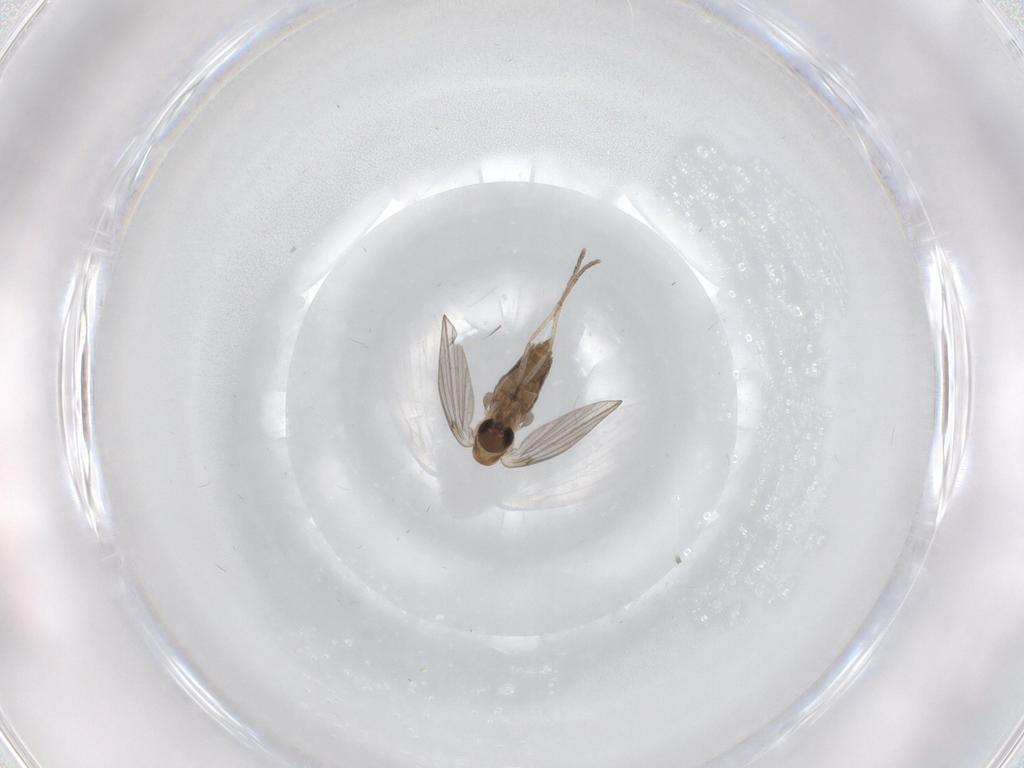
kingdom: Animalia
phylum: Arthropoda
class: Insecta
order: Diptera
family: Psychodidae
